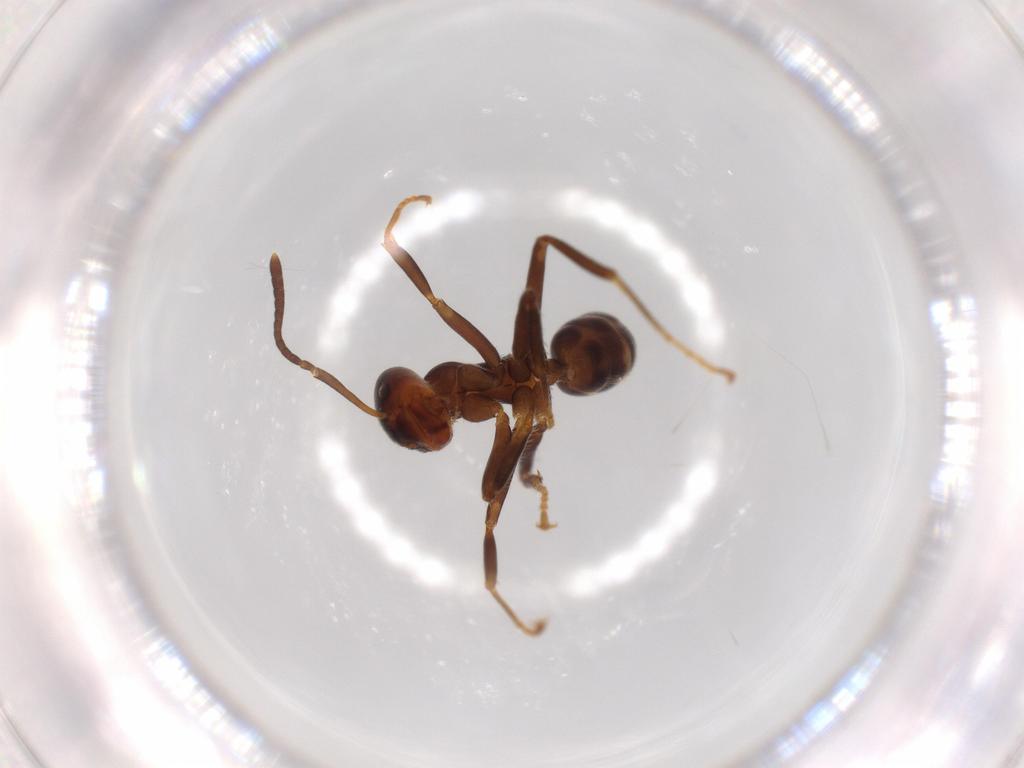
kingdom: Animalia
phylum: Arthropoda
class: Insecta
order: Hymenoptera
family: Formicidae
